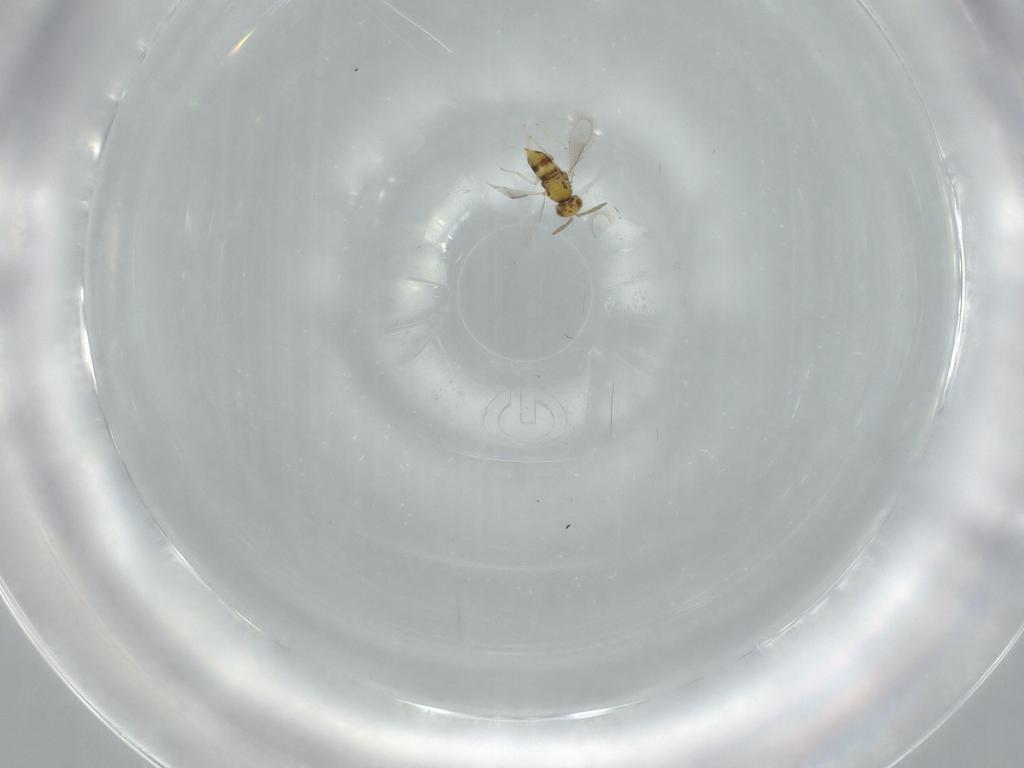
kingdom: Animalia
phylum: Arthropoda
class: Insecta
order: Hymenoptera
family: Aphelinidae
